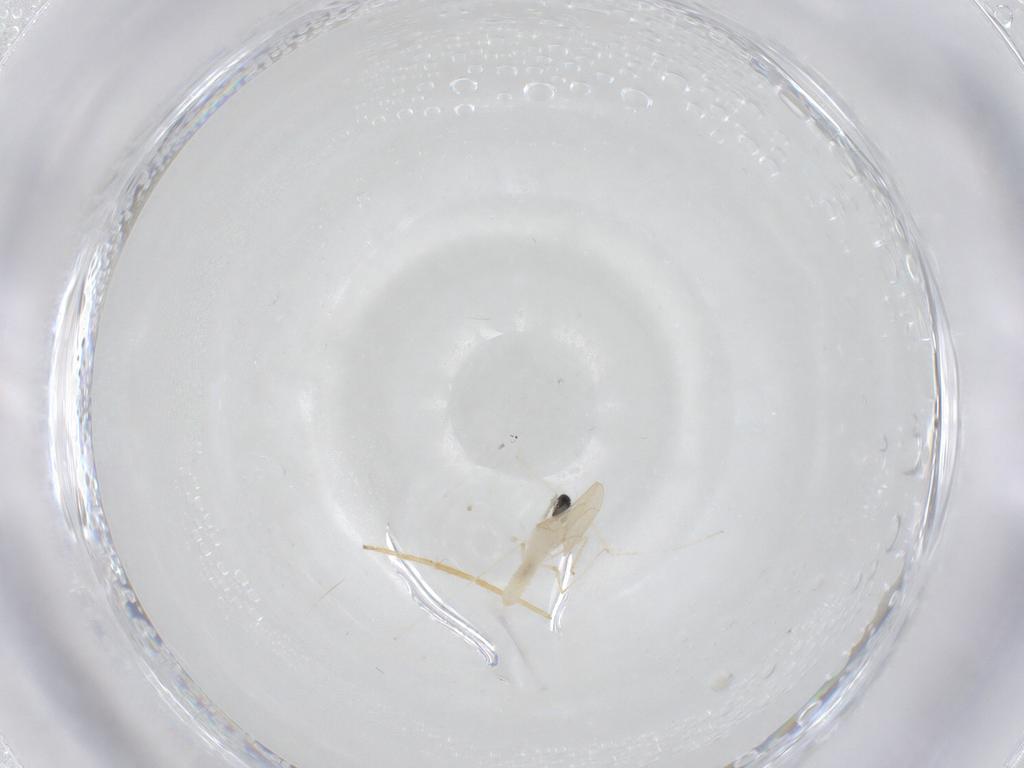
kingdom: Animalia
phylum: Arthropoda
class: Insecta
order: Diptera
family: Cecidomyiidae
